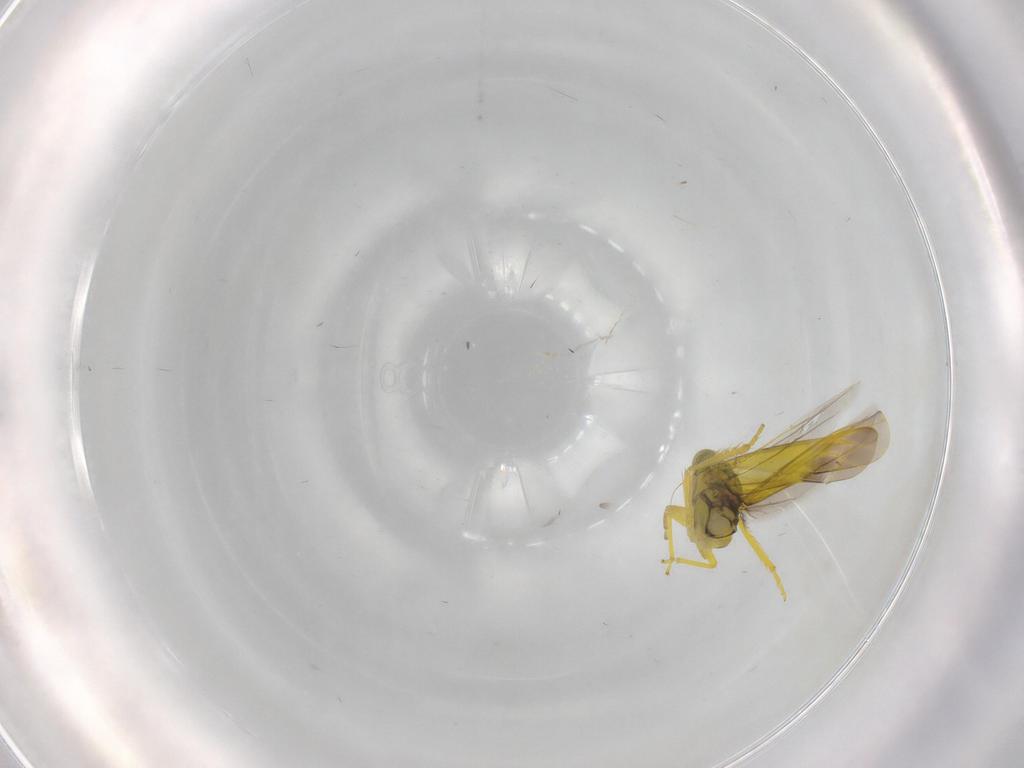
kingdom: Animalia
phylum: Arthropoda
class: Insecta
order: Hemiptera
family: Cicadellidae
